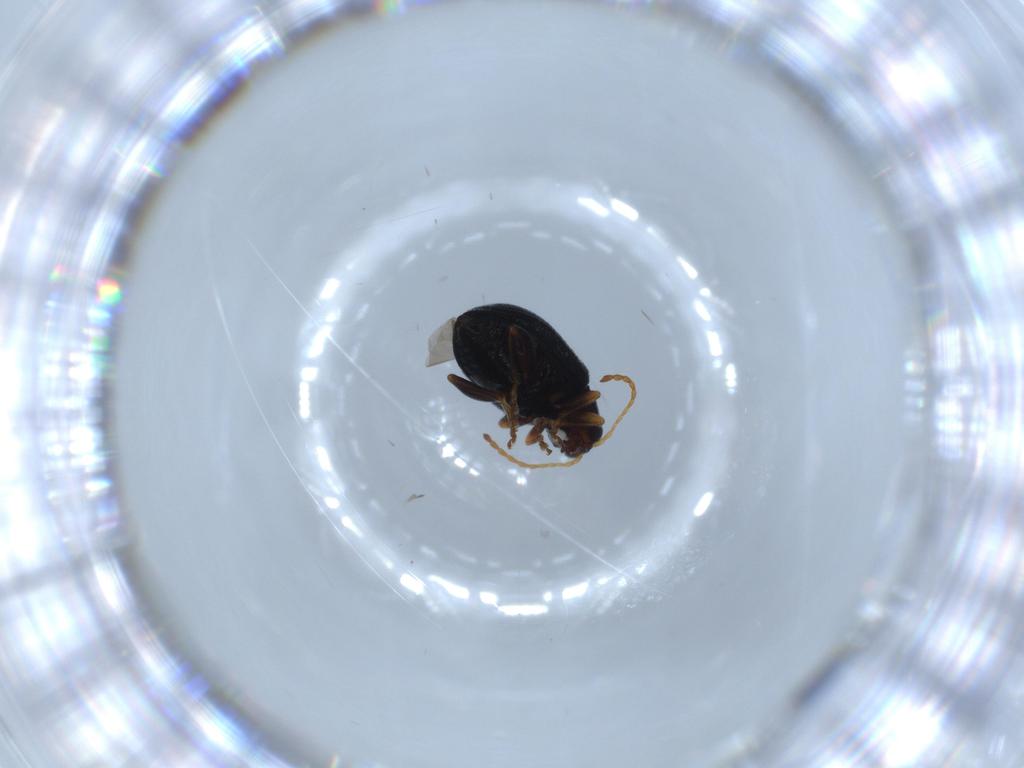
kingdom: Animalia
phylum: Arthropoda
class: Insecta
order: Coleoptera
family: Chrysomelidae
